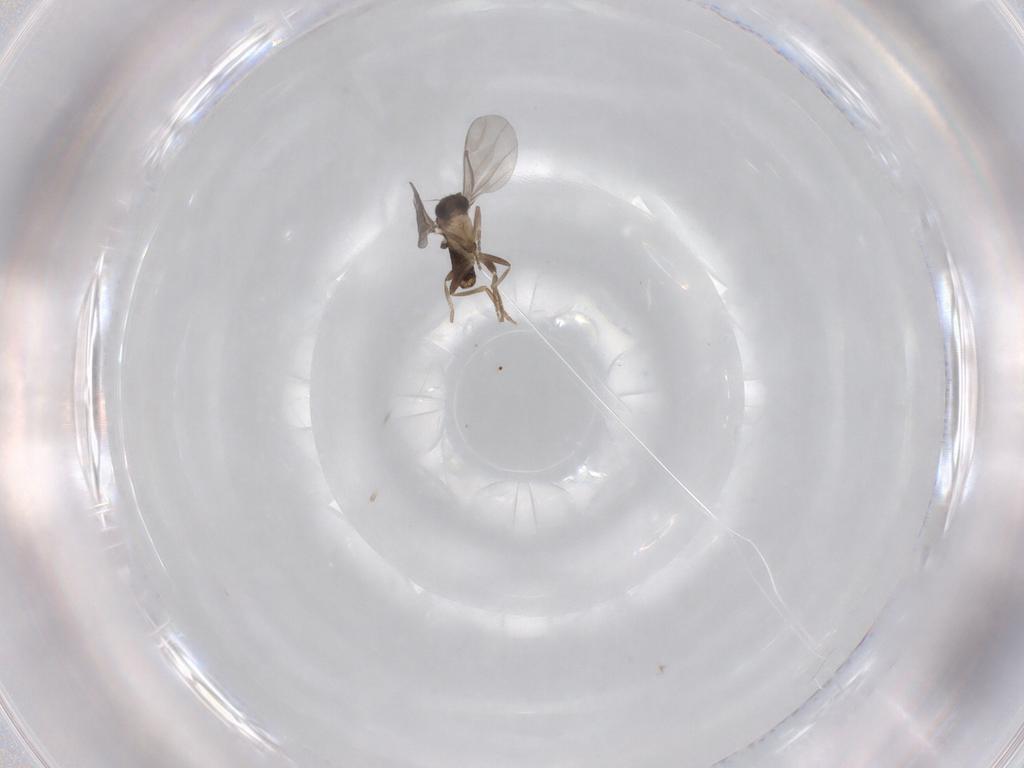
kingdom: Animalia
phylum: Arthropoda
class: Insecta
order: Diptera
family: Phoridae
